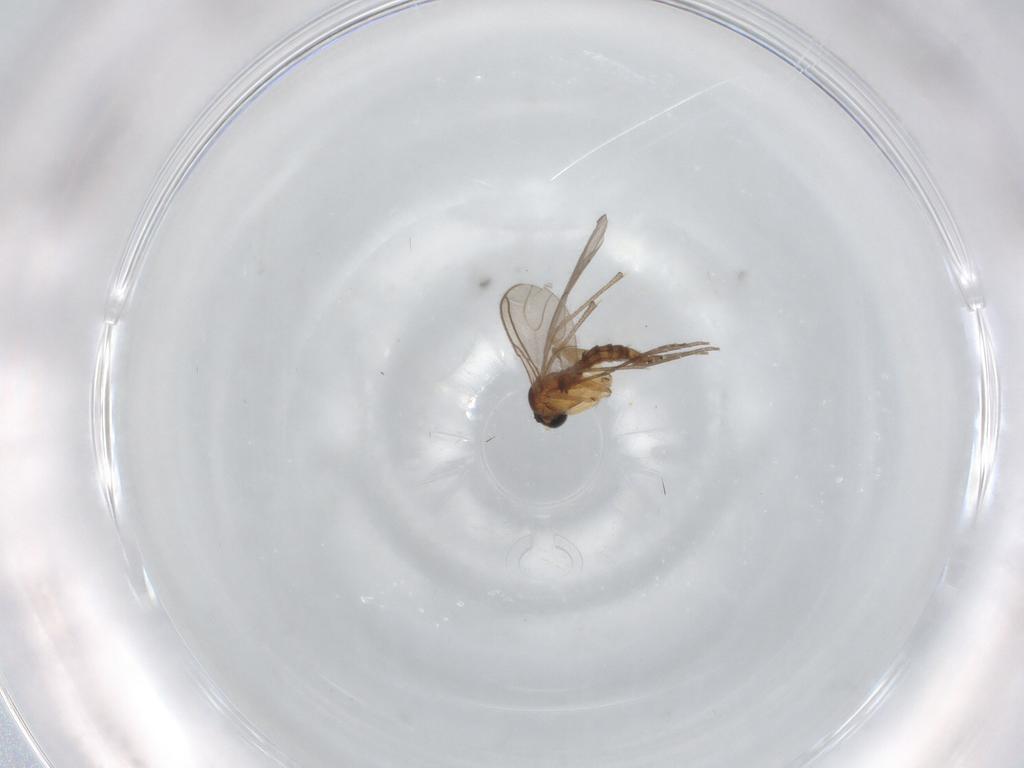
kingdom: Animalia
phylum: Arthropoda
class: Insecta
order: Diptera
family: Sciaridae
